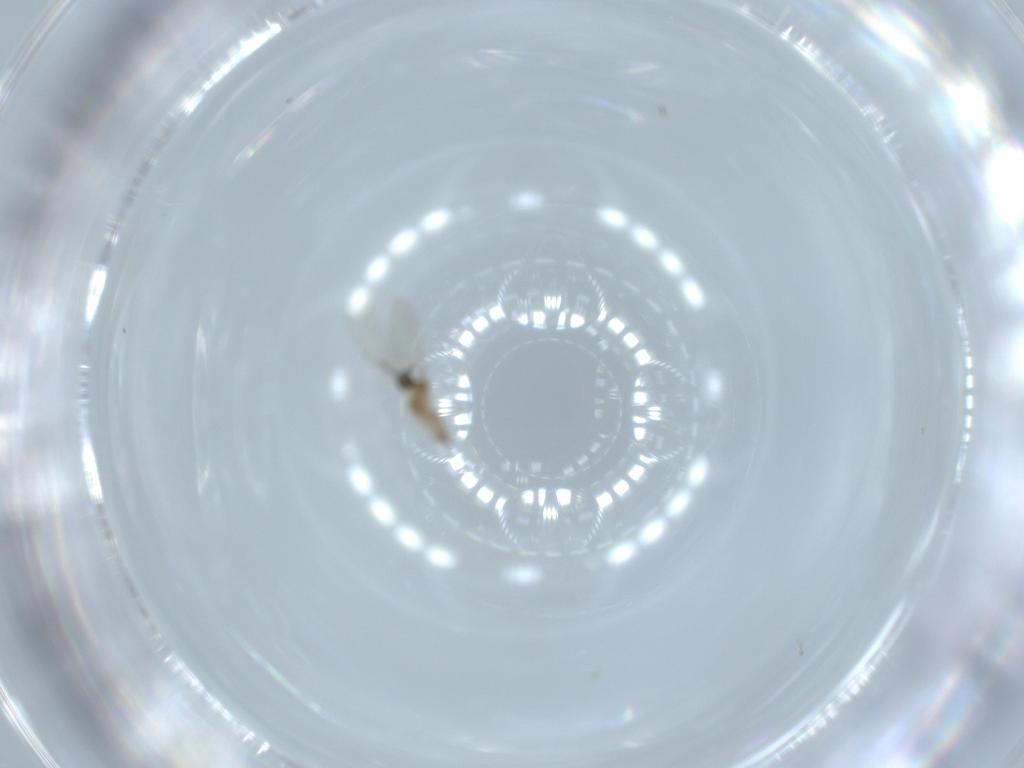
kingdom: Animalia
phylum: Arthropoda
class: Insecta
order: Diptera
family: Cecidomyiidae
